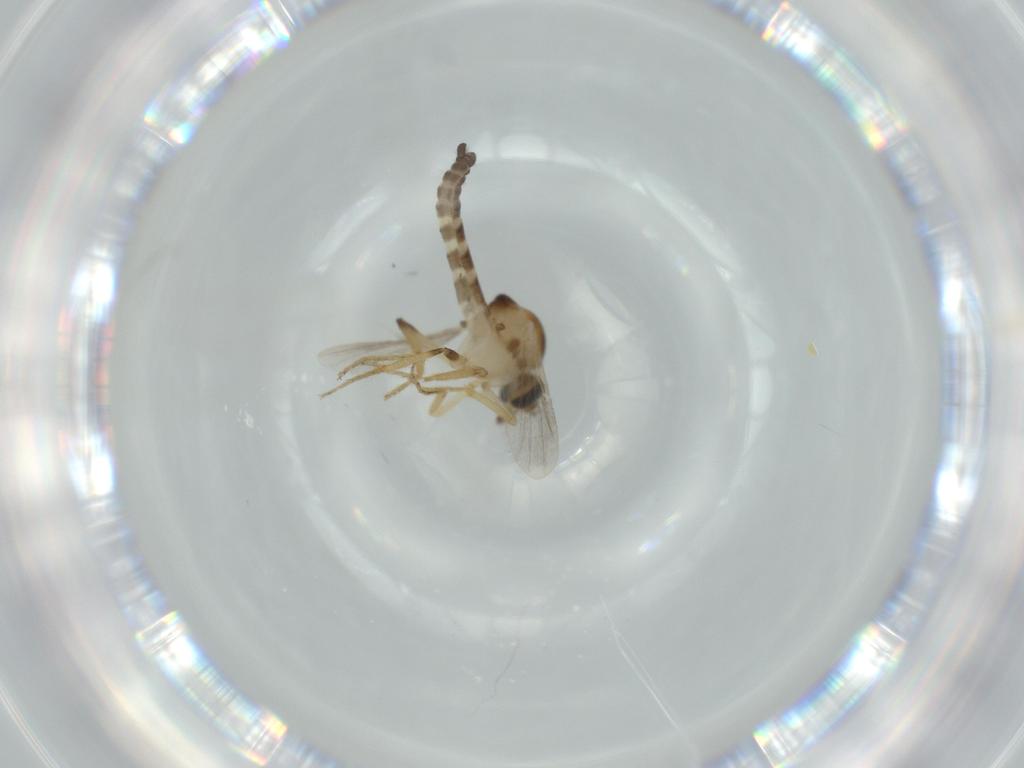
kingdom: Animalia
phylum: Arthropoda
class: Insecta
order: Diptera
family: Ceratopogonidae
